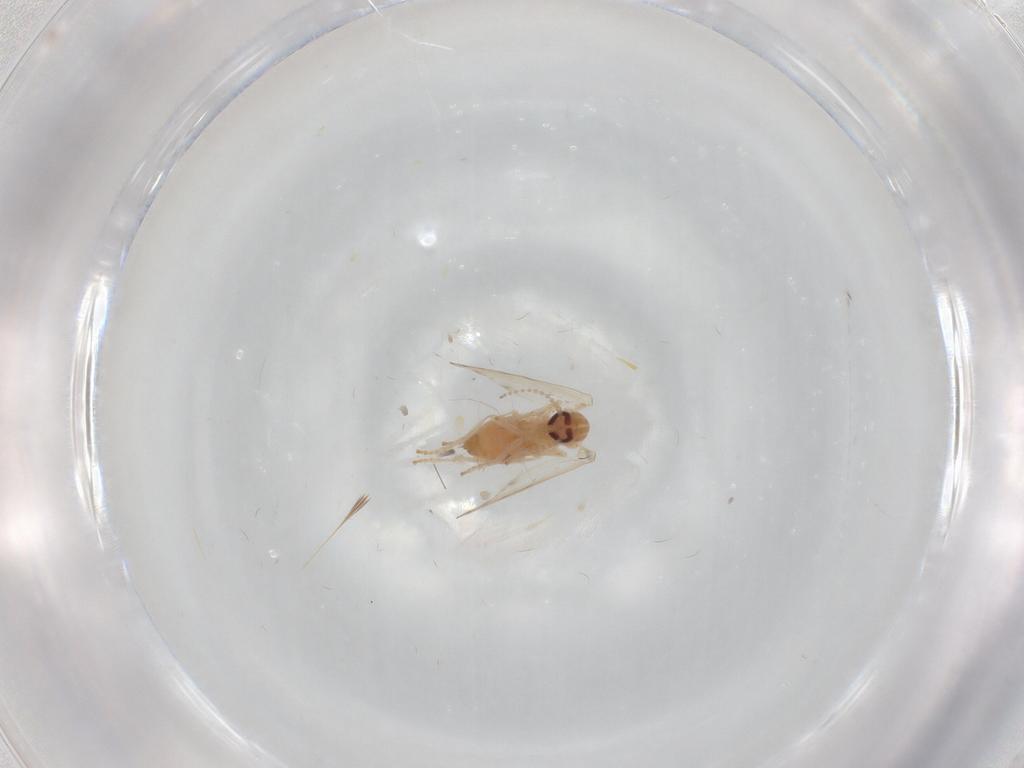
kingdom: Animalia
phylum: Arthropoda
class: Insecta
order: Diptera
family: Psychodidae
